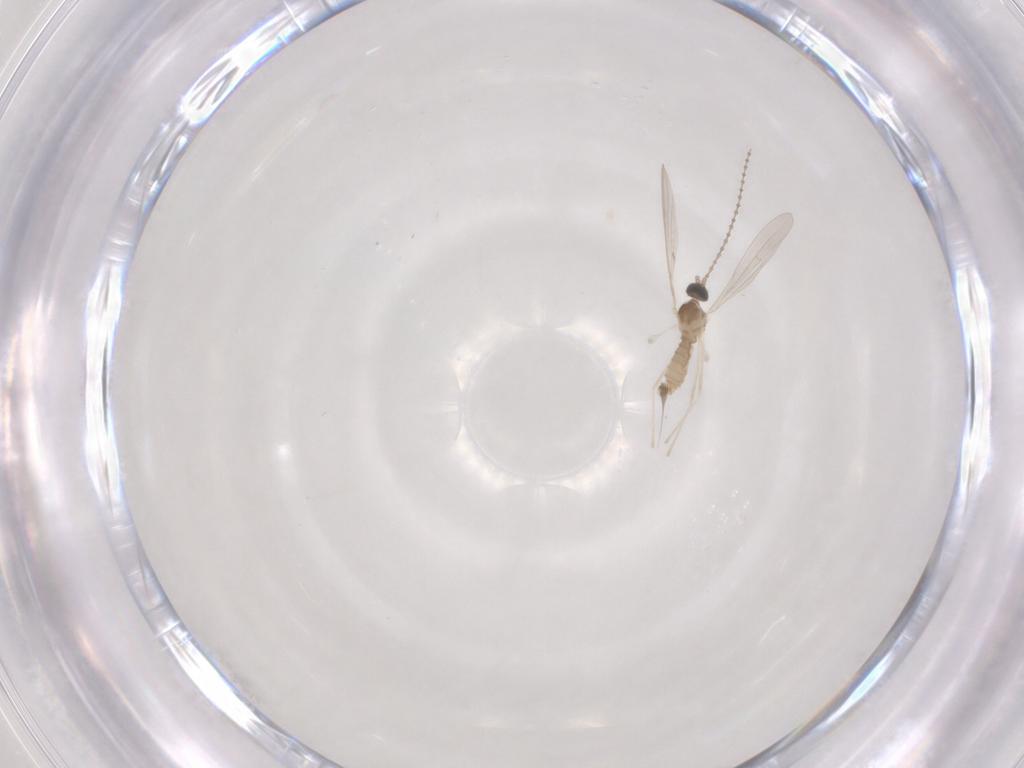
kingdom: Animalia
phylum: Arthropoda
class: Insecta
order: Diptera
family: Cecidomyiidae
